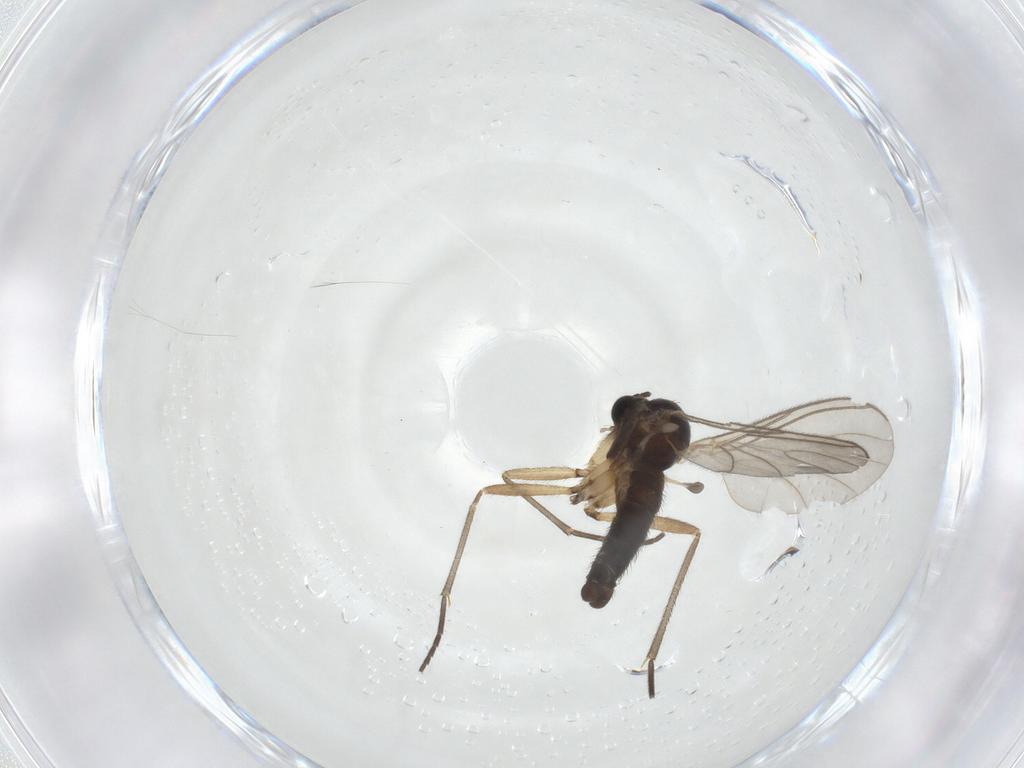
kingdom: Animalia
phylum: Arthropoda
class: Insecta
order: Diptera
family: Sciaridae
